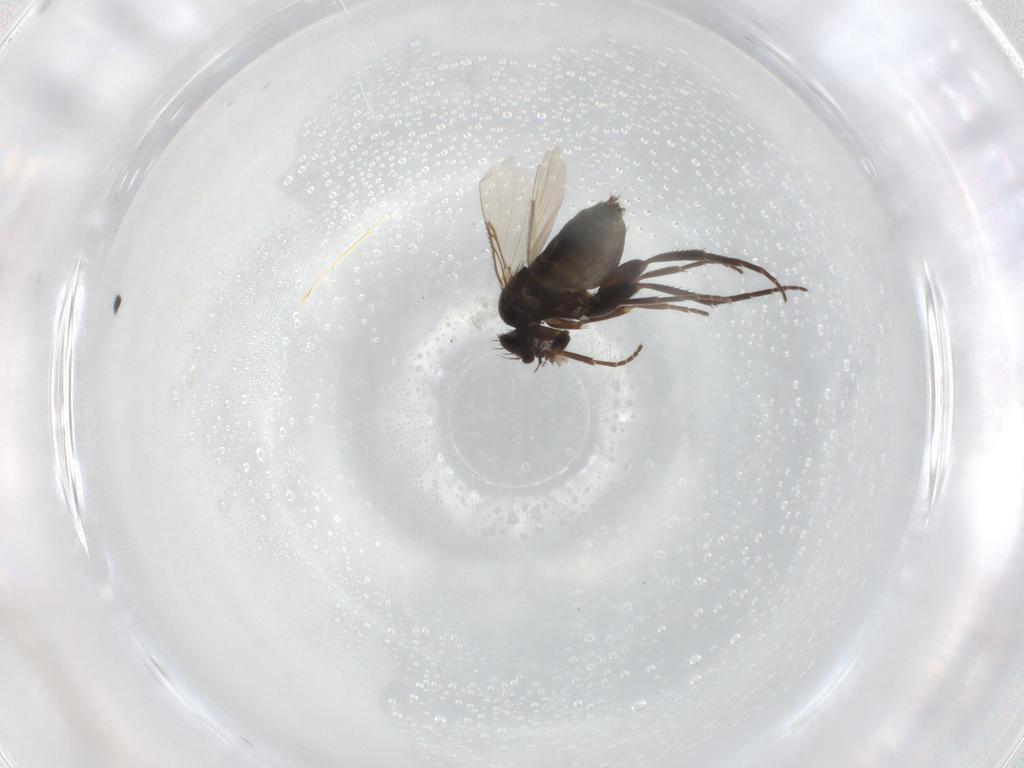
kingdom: Animalia
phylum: Arthropoda
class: Insecta
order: Diptera
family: Phoridae
